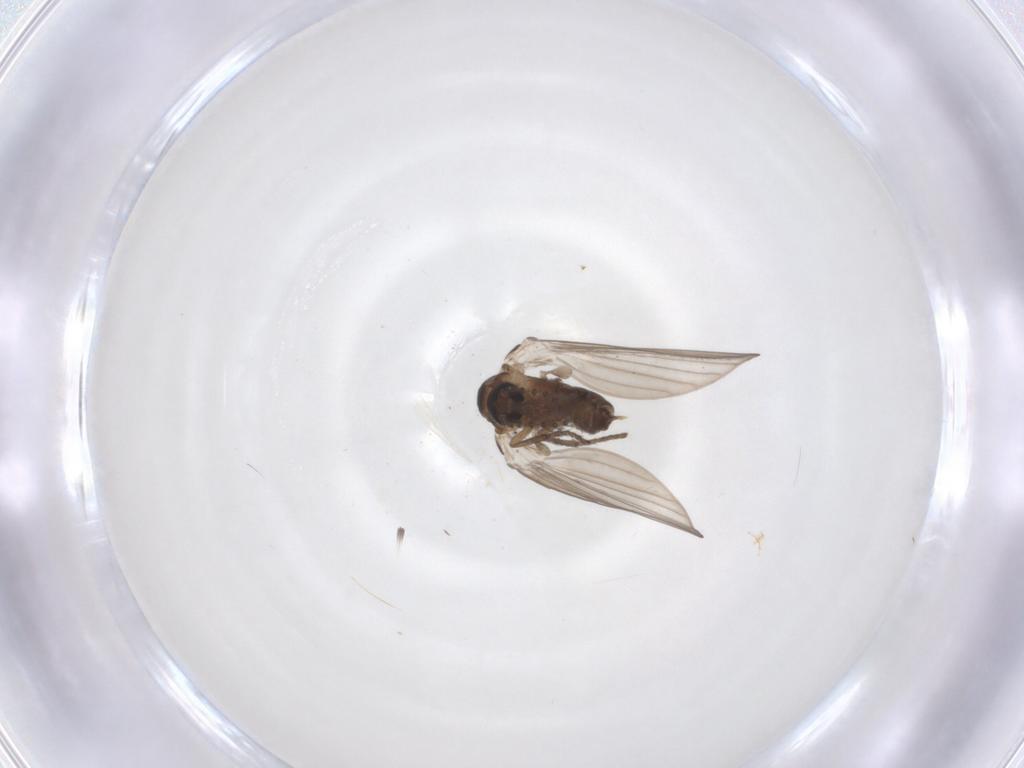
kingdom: Animalia
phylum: Arthropoda
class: Insecta
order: Diptera
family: Psychodidae
